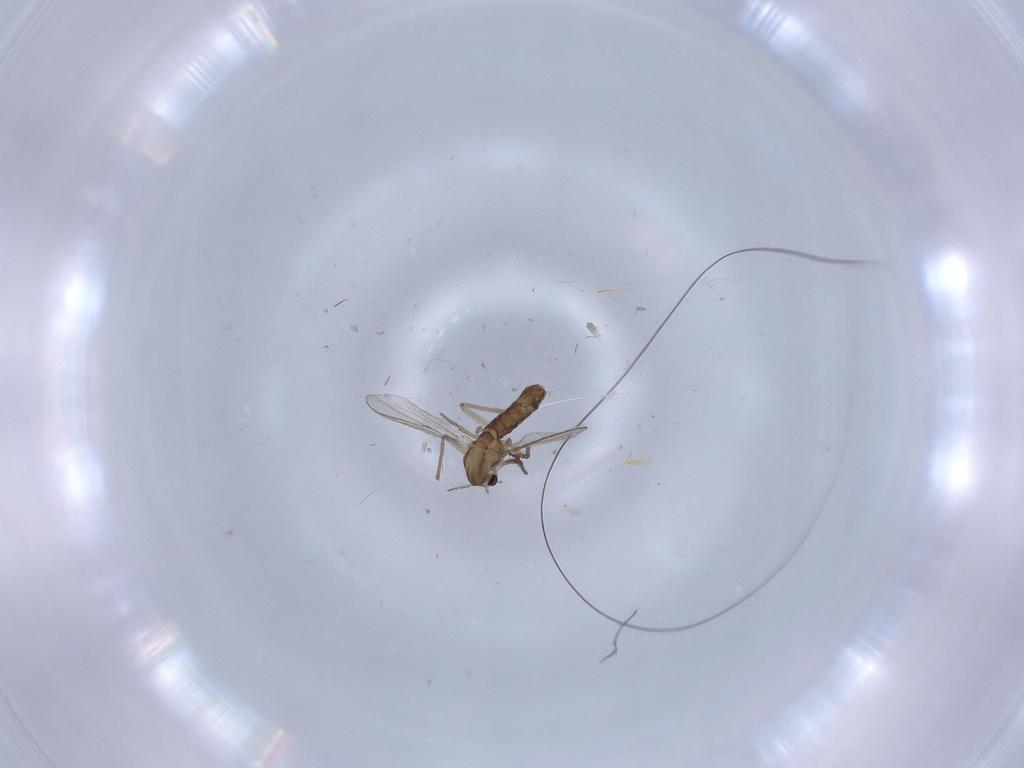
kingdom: Animalia
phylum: Arthropoda
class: Insecta
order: Diptera
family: Chironomidae
